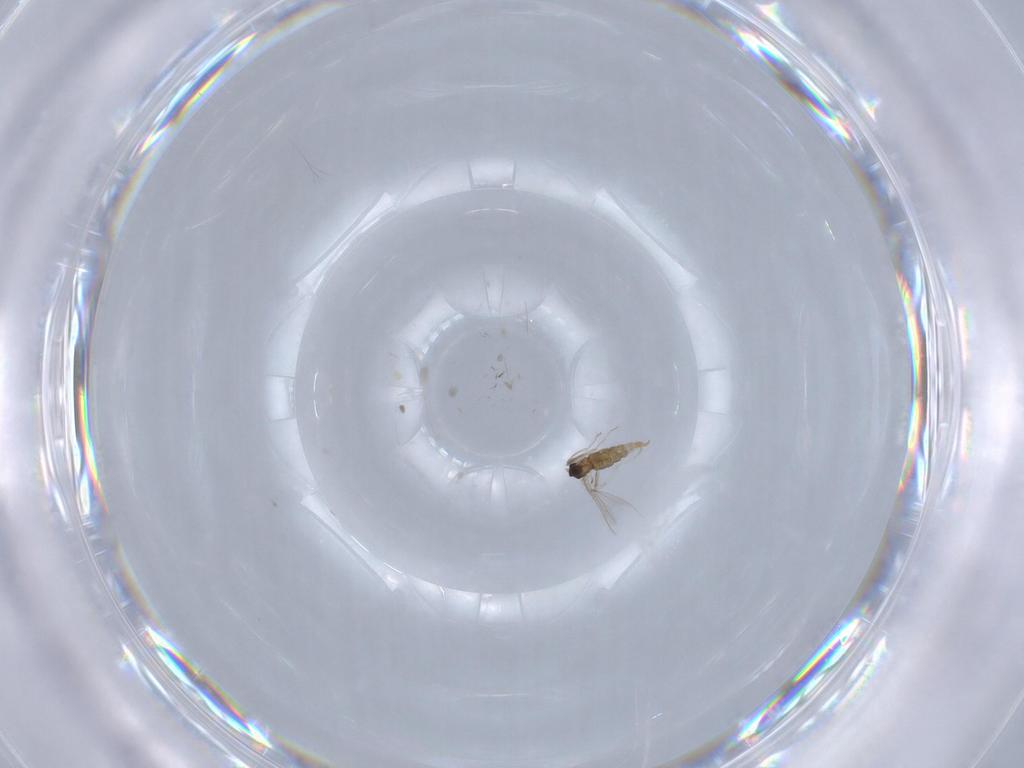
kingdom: Animalia
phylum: Arthropoda
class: Insecta
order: Diptera
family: Cecidomyiidae
